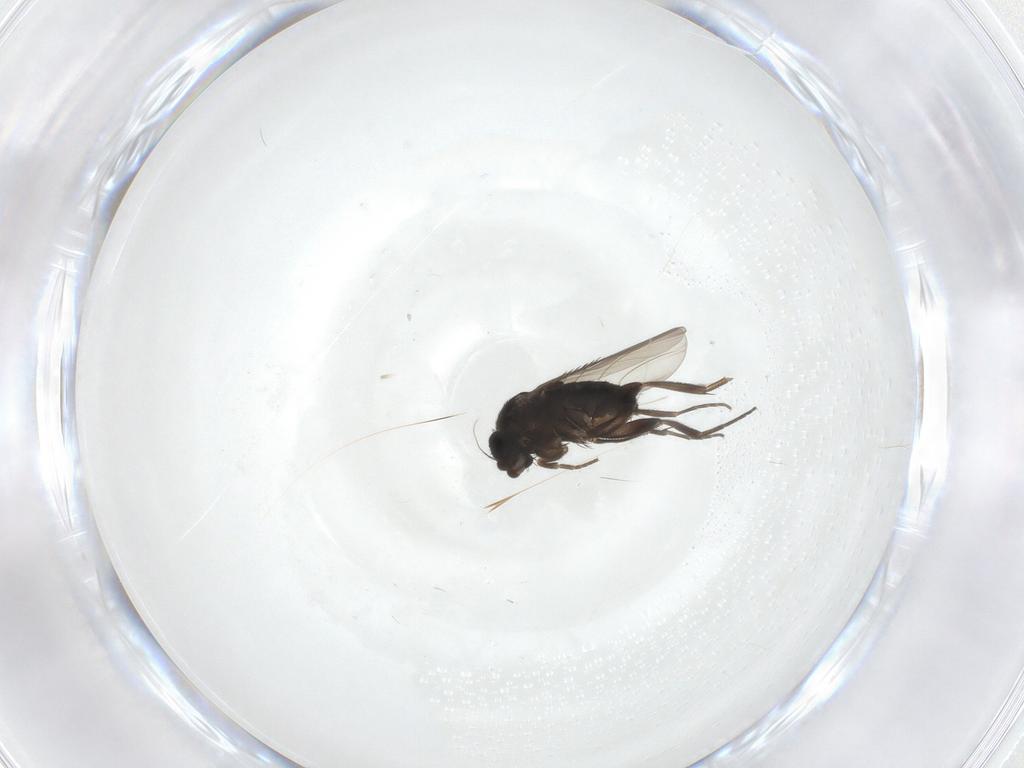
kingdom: Animalia
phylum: Arthropoda
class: Insecta
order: Diptera
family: Phoridae
